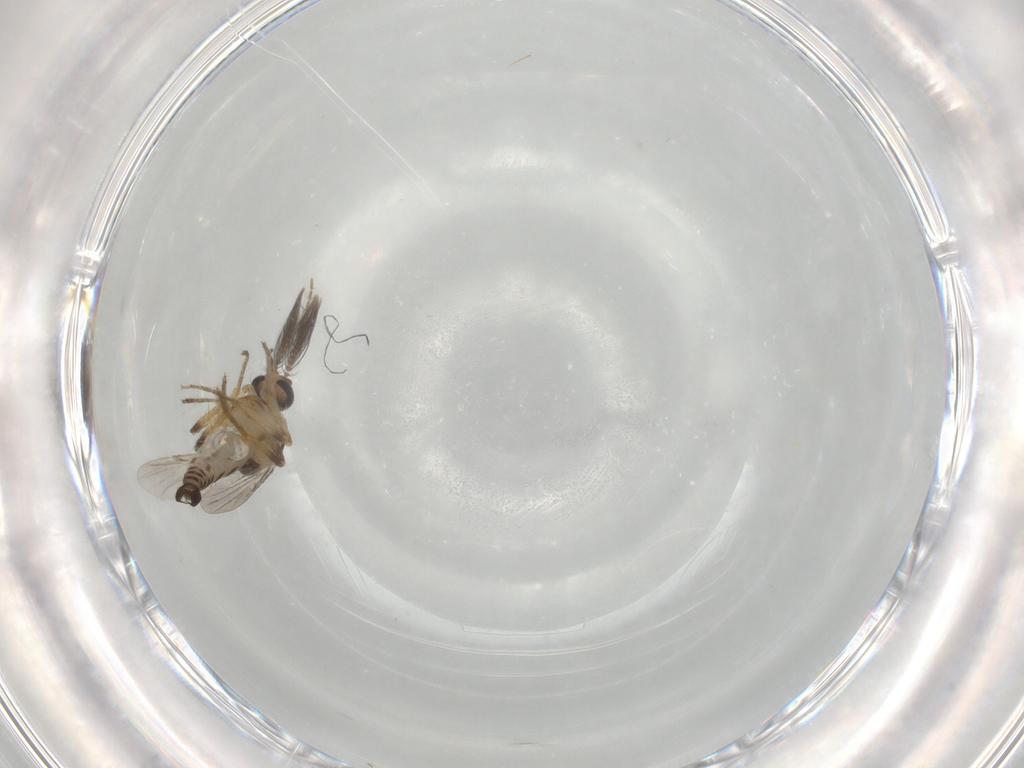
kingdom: Animalia
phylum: Arthropoda
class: Insecta
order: Diptera
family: Ceratopogonidae
